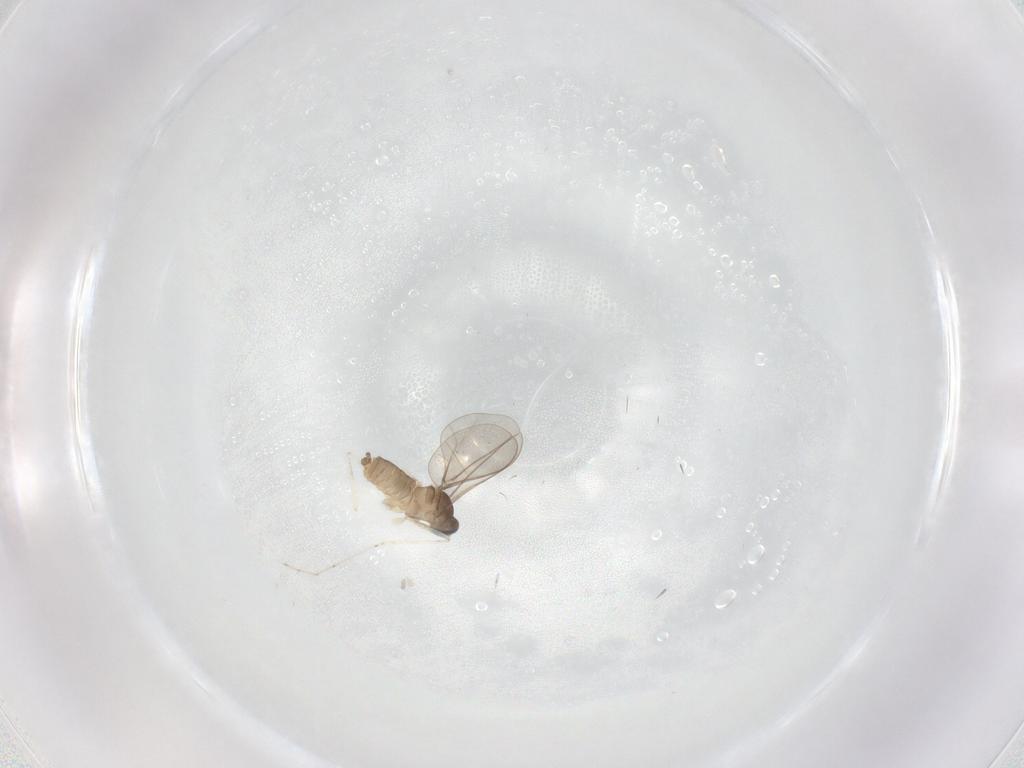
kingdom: Animalia
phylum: Arthropoda
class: Insecta
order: Diptera
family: Cecidomyiidae
